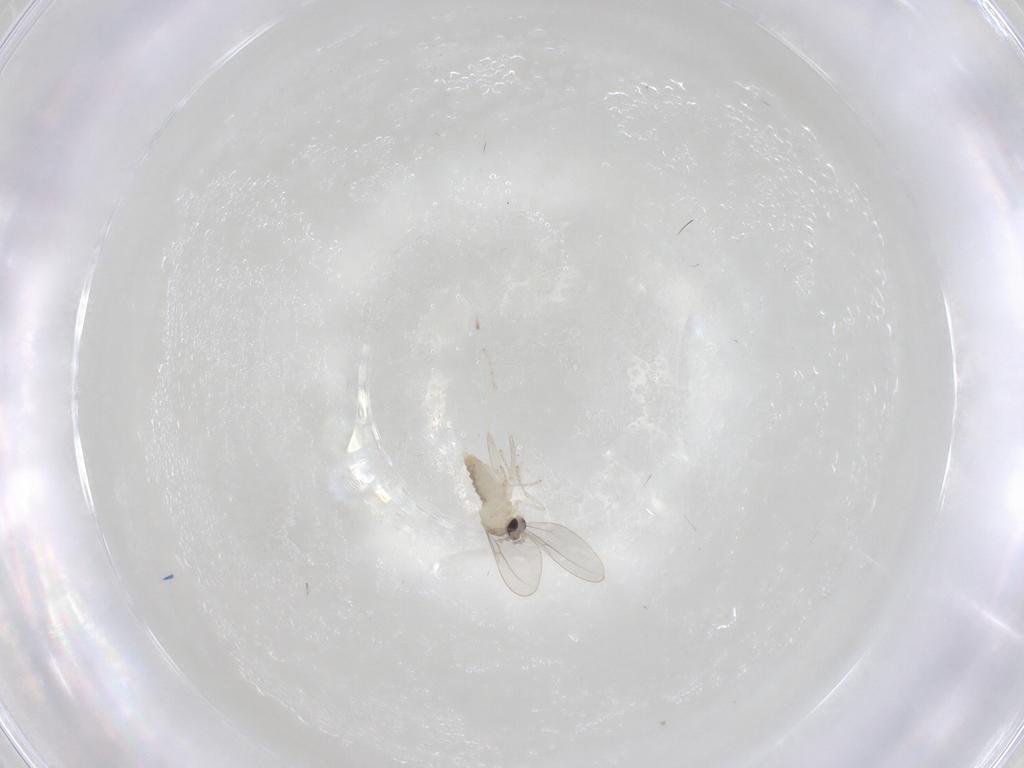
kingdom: Animalia
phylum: Arthropoda
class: Insecta
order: Diptera
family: Cecidomyiidae
